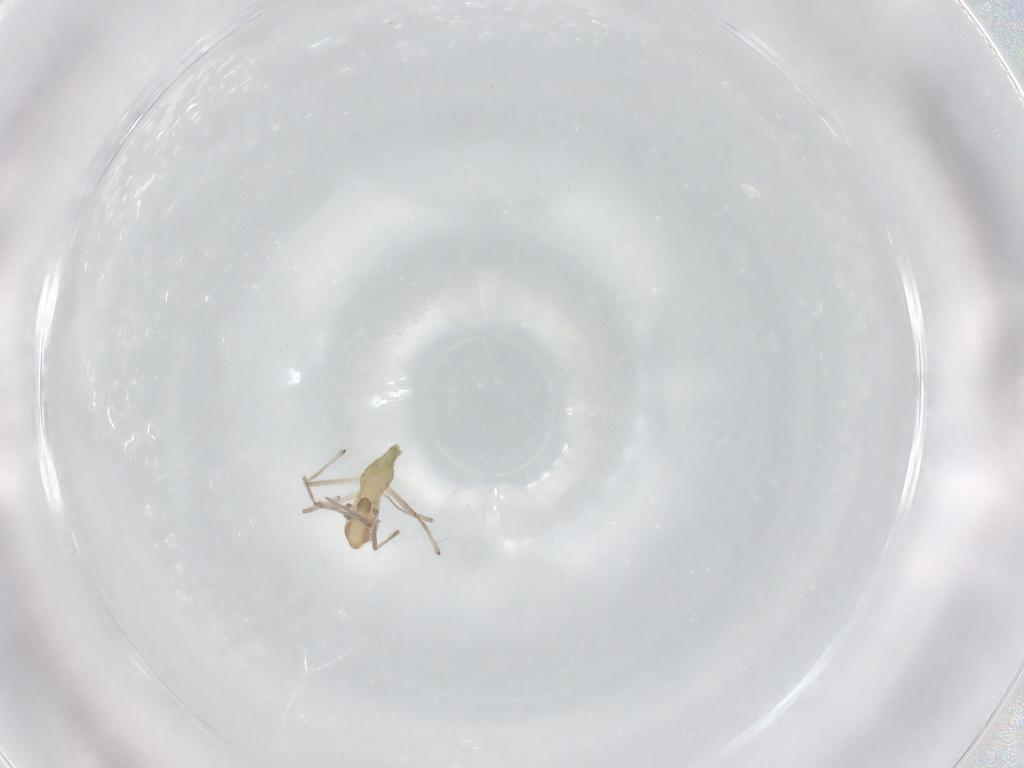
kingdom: Animalia
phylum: Arthropoda
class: Insecta
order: Diptera
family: Chironomidae
